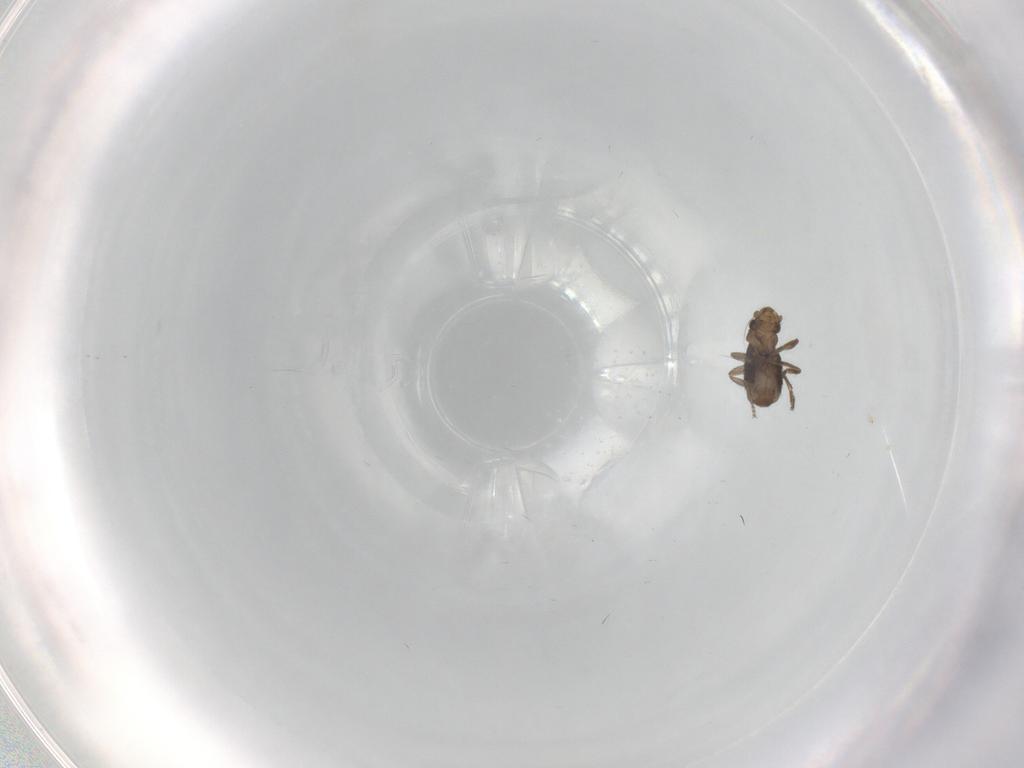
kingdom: Animalia
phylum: Arthropoda
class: Insecta
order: Diptera
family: Phoridae
